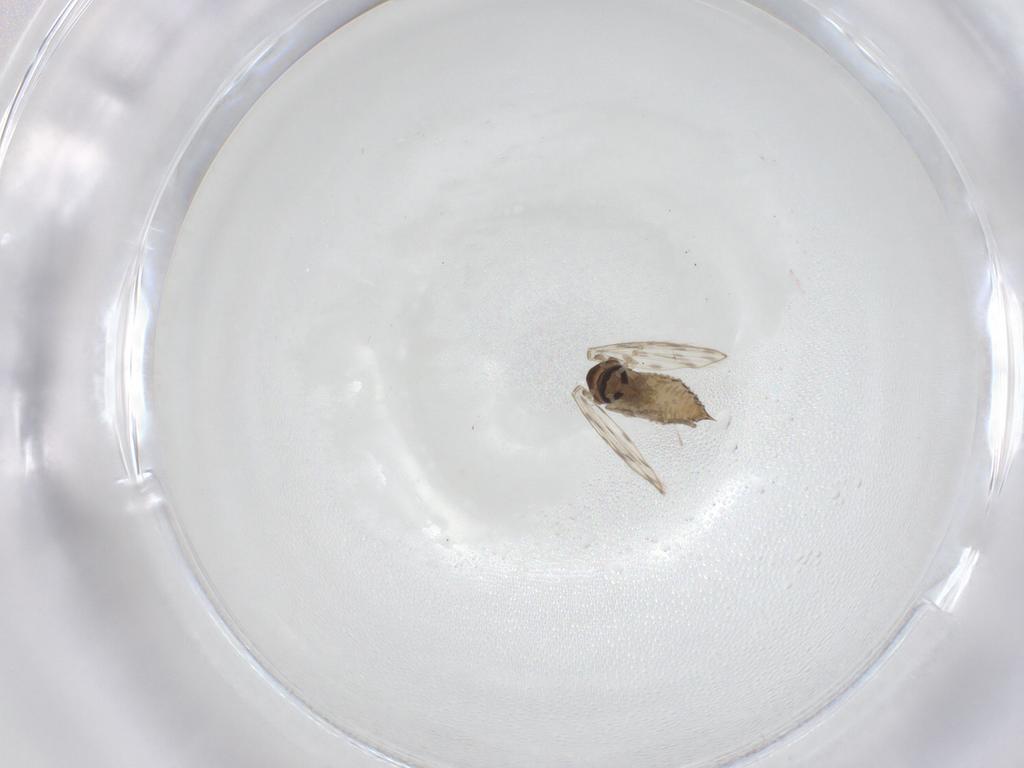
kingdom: Animalia
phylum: Arthropoda
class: Insecta
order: Diptera
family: Psychodidae
